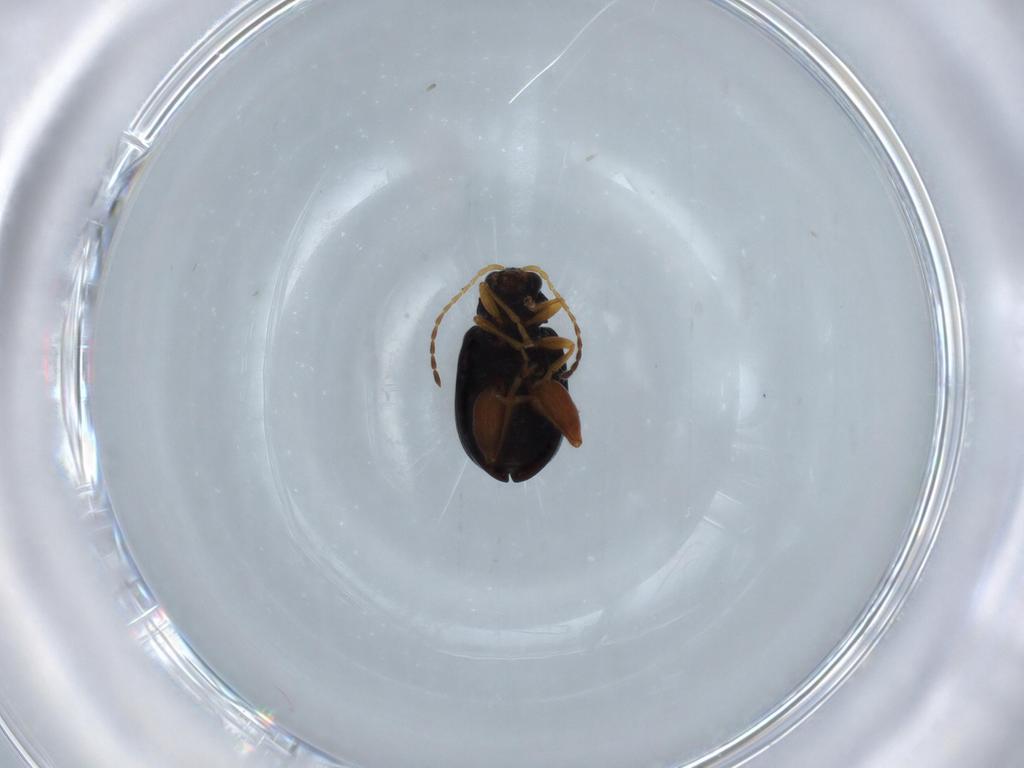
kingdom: Animalia
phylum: Arthropoda
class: Insecta
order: Coleoptera
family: Chrysomelidae
